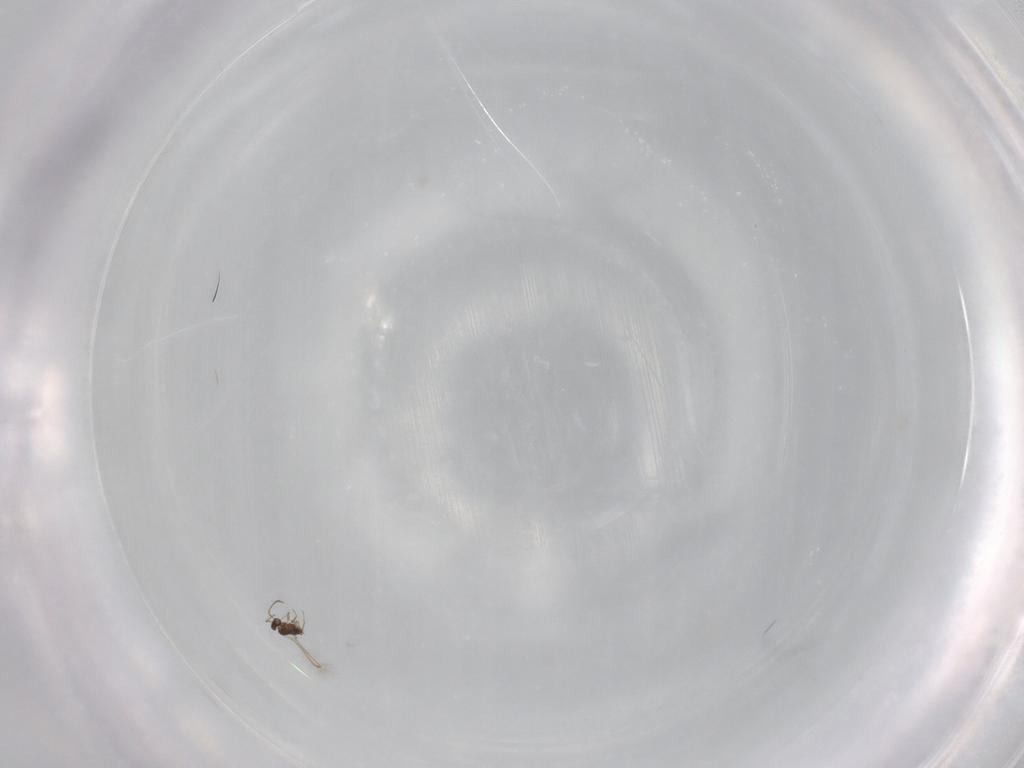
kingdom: Animalia
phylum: Arthropoda
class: Insecta
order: Hymenoptera
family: Mymaridae
